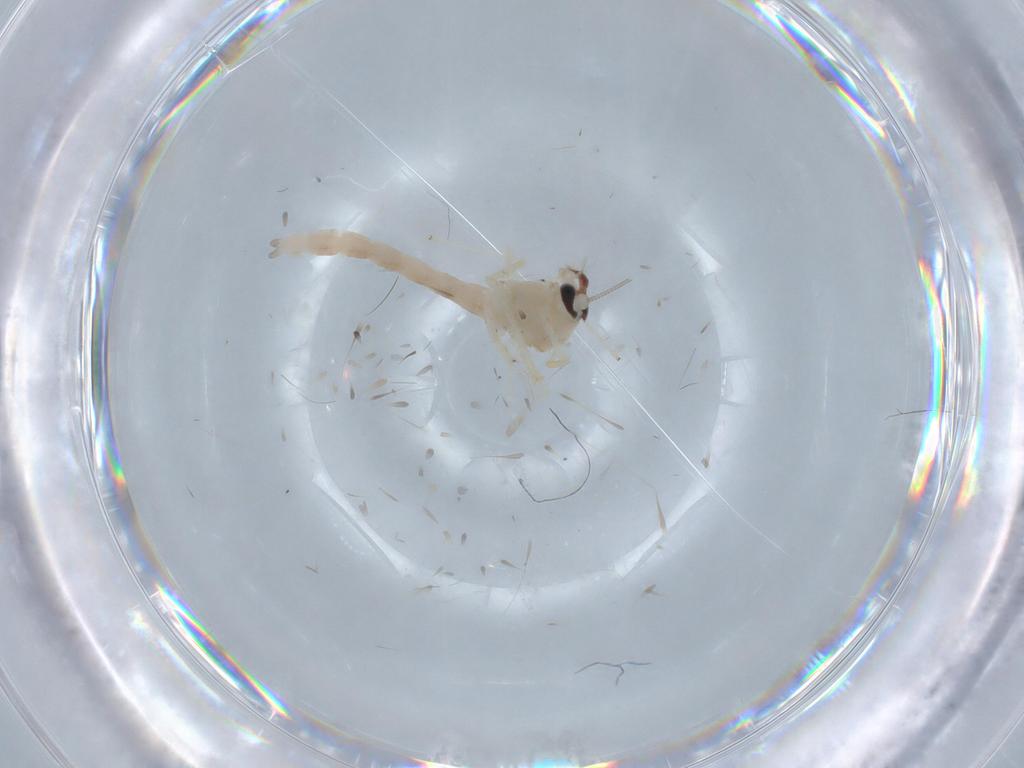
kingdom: Animalia
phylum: Arthropoda
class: Insecta
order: Diptera
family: Chironomidae
